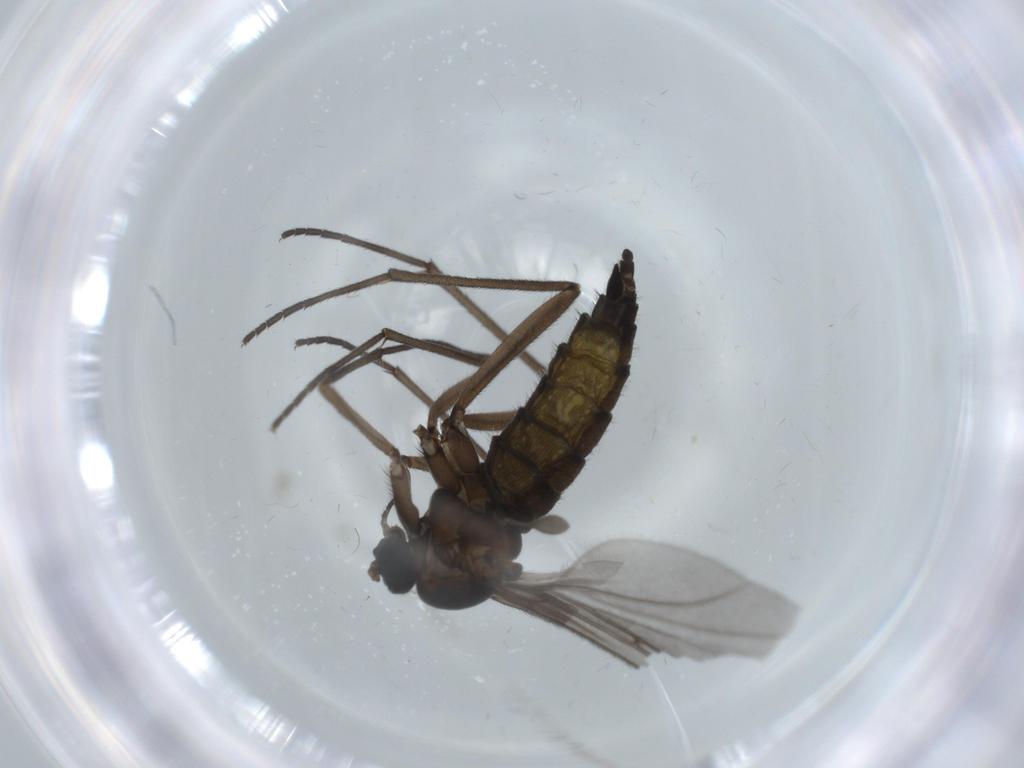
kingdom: Animalia
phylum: Arthropoda
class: Insecta
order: Diptera
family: Sciaridae
